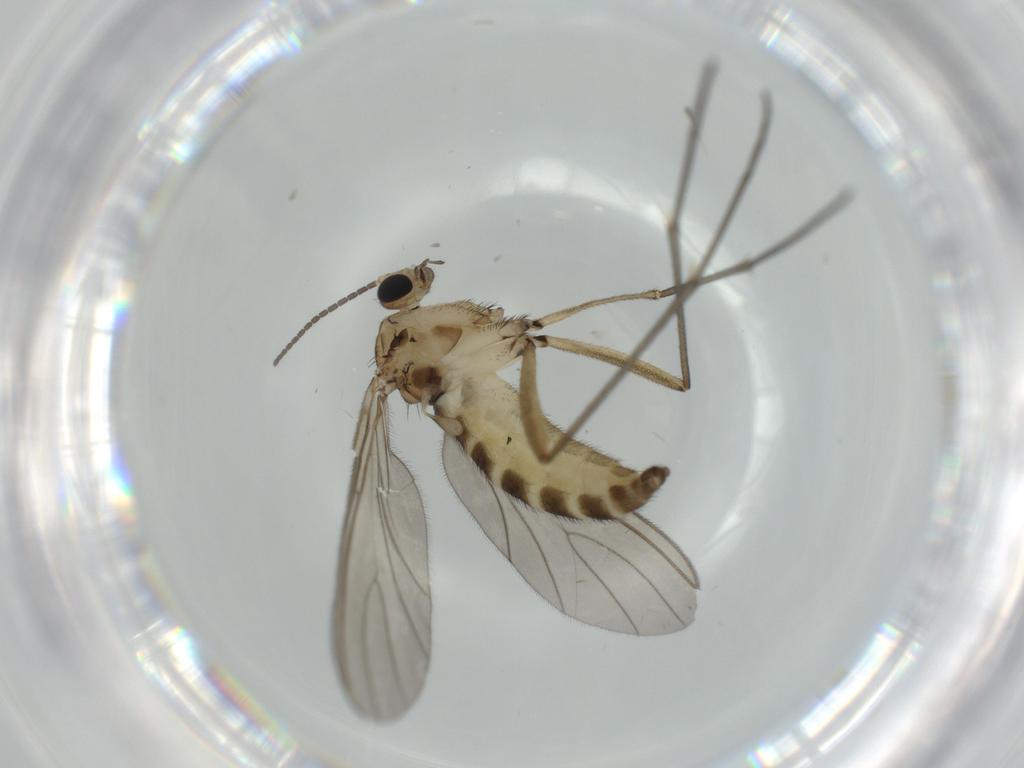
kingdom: Animalia
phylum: Arthropoda
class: Insecta
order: Diptera
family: Sciaridae
